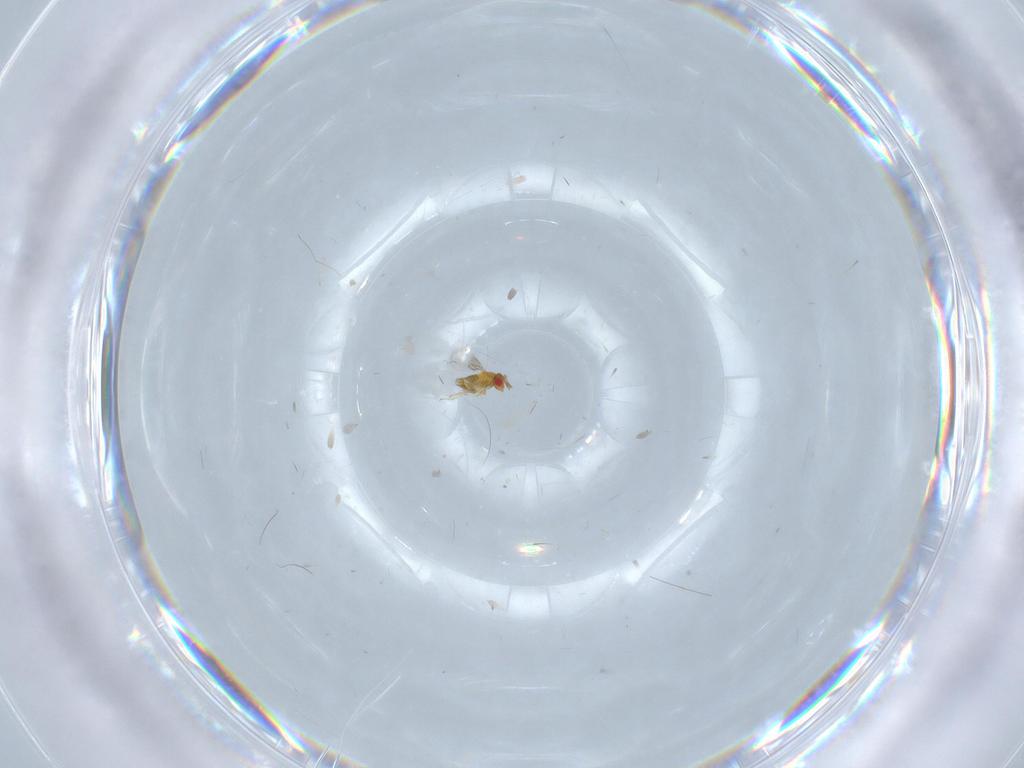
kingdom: Animalia
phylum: Arthropoda
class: Insecta
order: Hymenoptera
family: Trichogrammatidae
